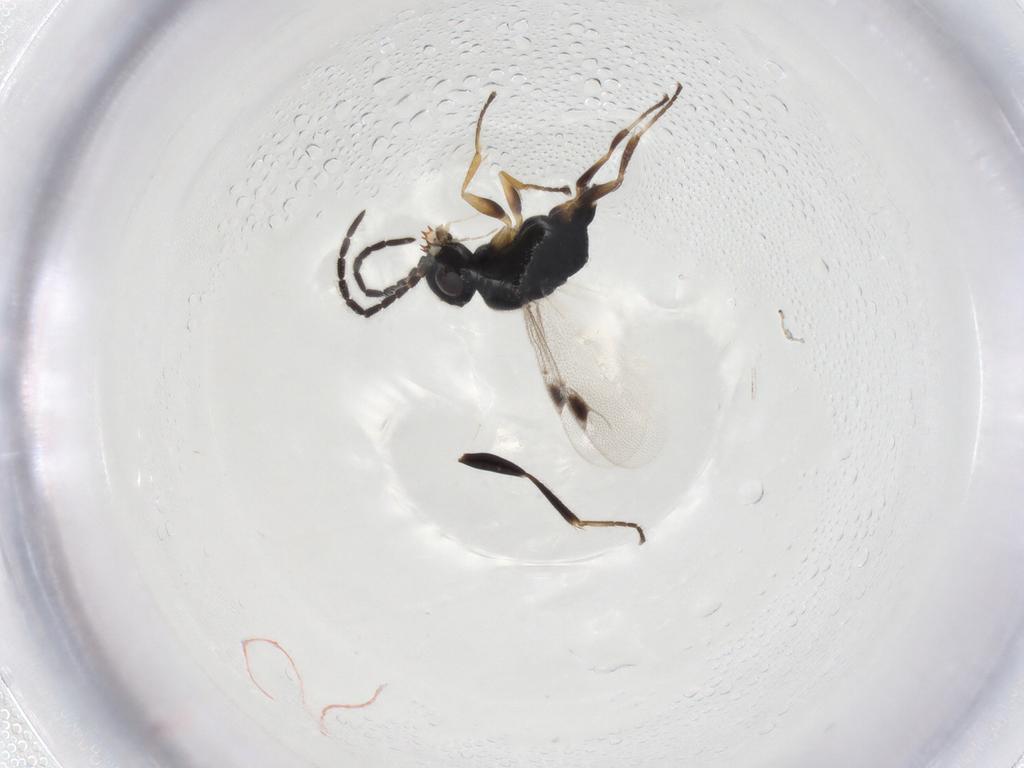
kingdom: Animalia
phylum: Arthropoda
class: Insecta
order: Hymenoptera
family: Dryinidae
